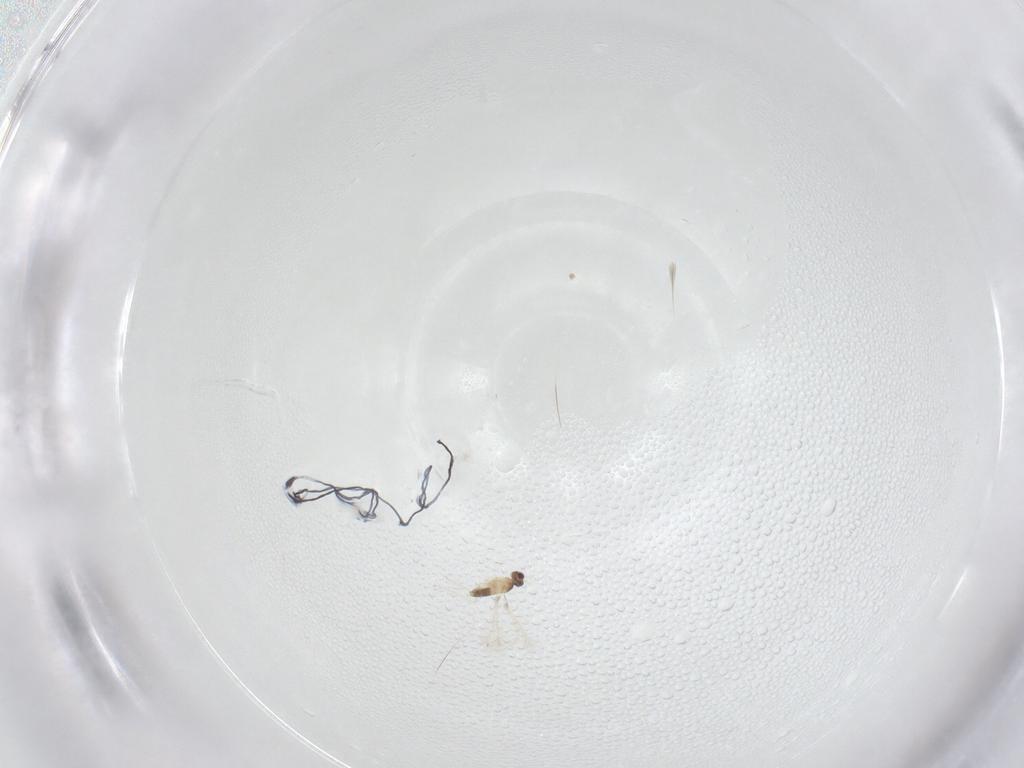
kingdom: Animalia
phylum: Arthropoda
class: Insecta
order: Hymenoptera
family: Mymaridae
